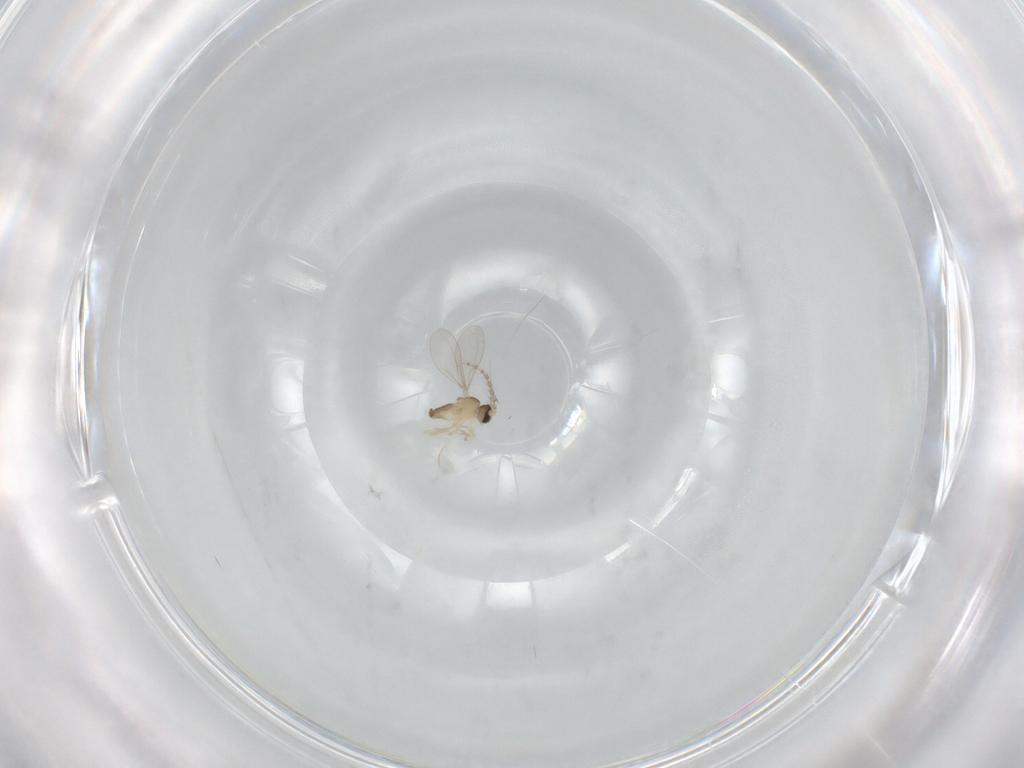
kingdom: Animalia
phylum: Arthropoda
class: Insecta
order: Diptera
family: Cecidomyiidae
